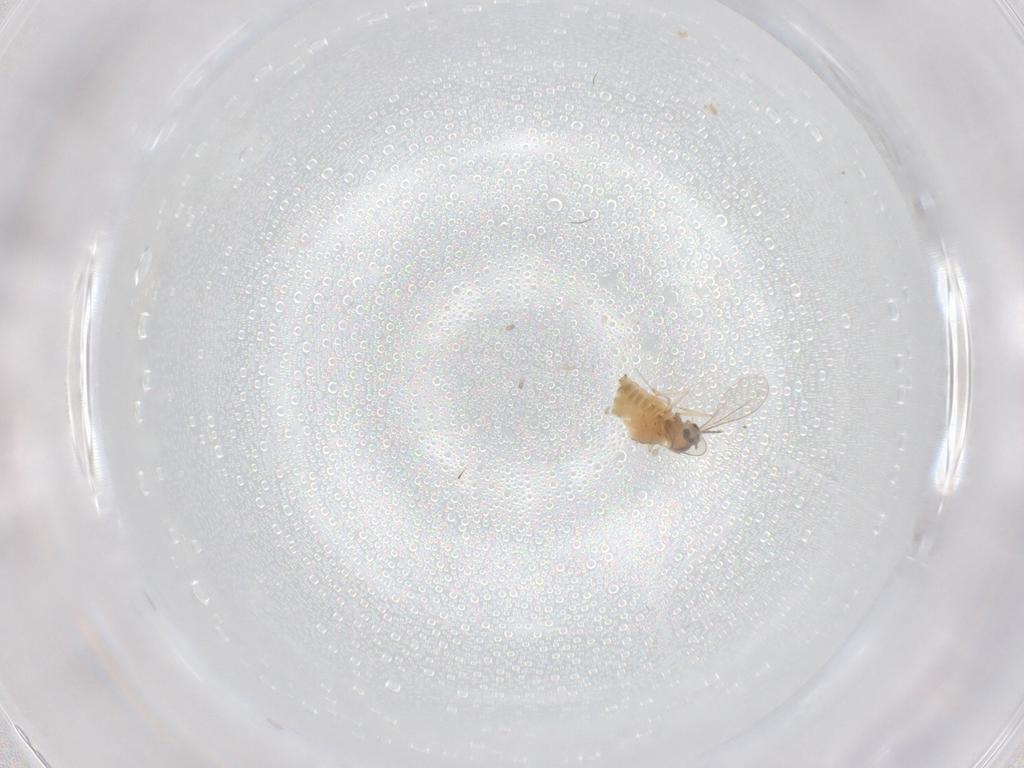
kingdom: Animalia
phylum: Arthropoda
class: Insecta
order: Diptera
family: Cecidomyiidae
